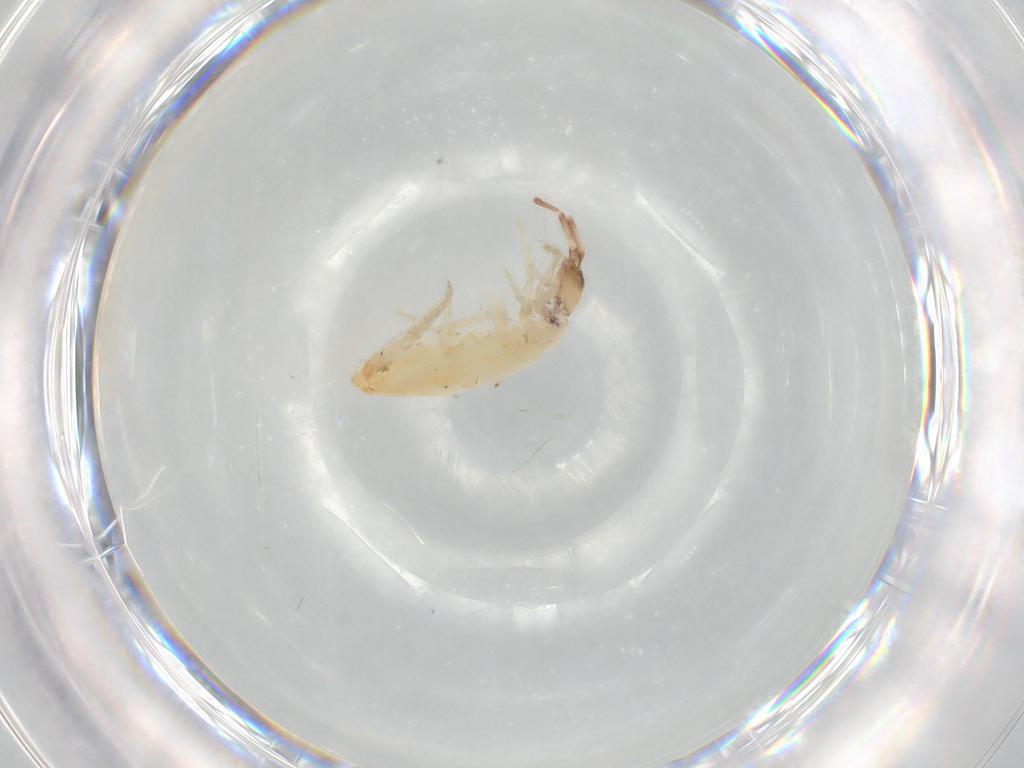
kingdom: Animalia
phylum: Arthropoda
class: Collembola
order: Entomobryomorpha
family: Entomobryidae
